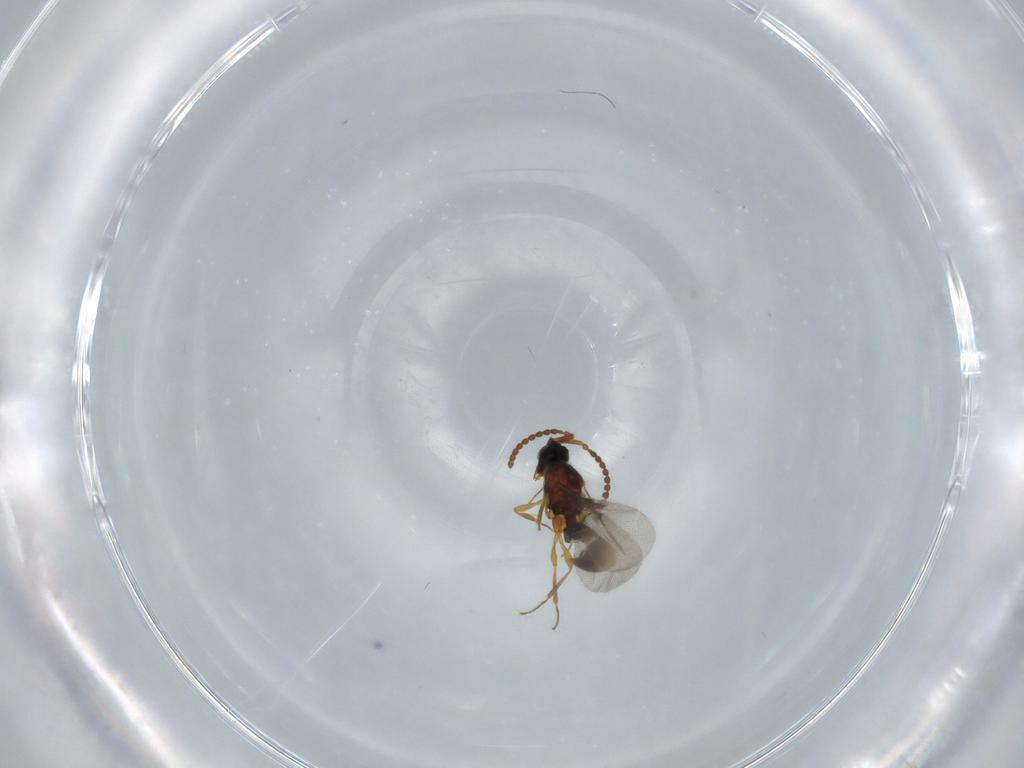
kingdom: Animalia
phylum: Arthropoda
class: Insecta
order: Hymenoptera
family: Diapriidae
